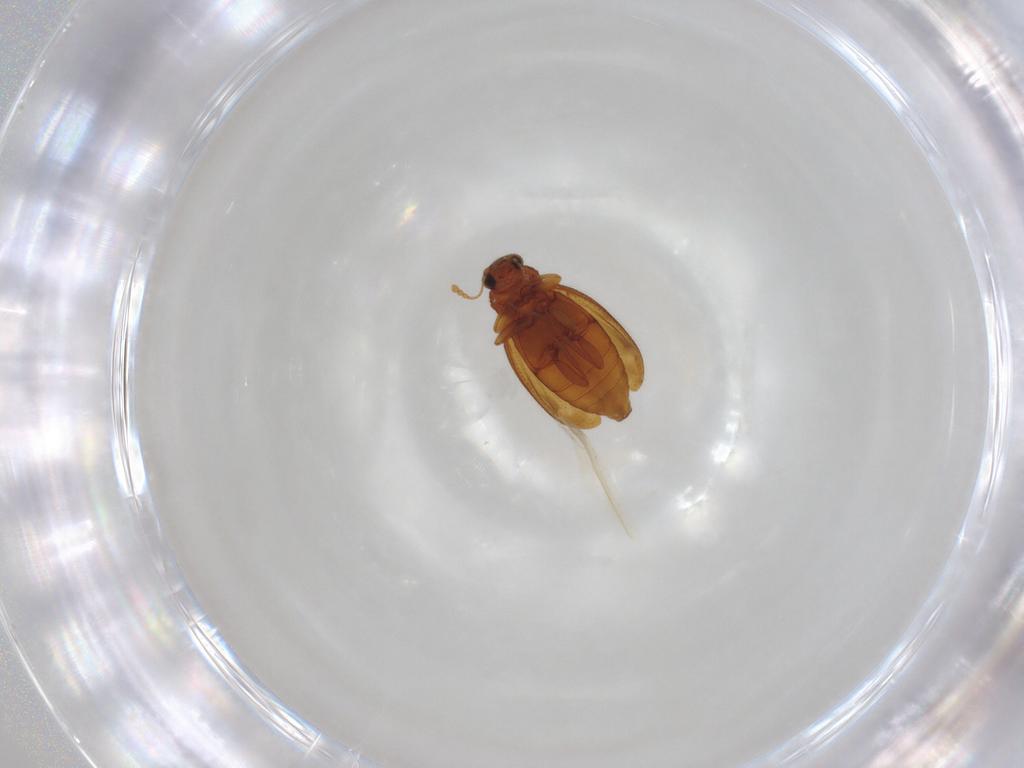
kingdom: Animalia
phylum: Arthropoda
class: Insecta
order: Coleoptera
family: Latridiidae
